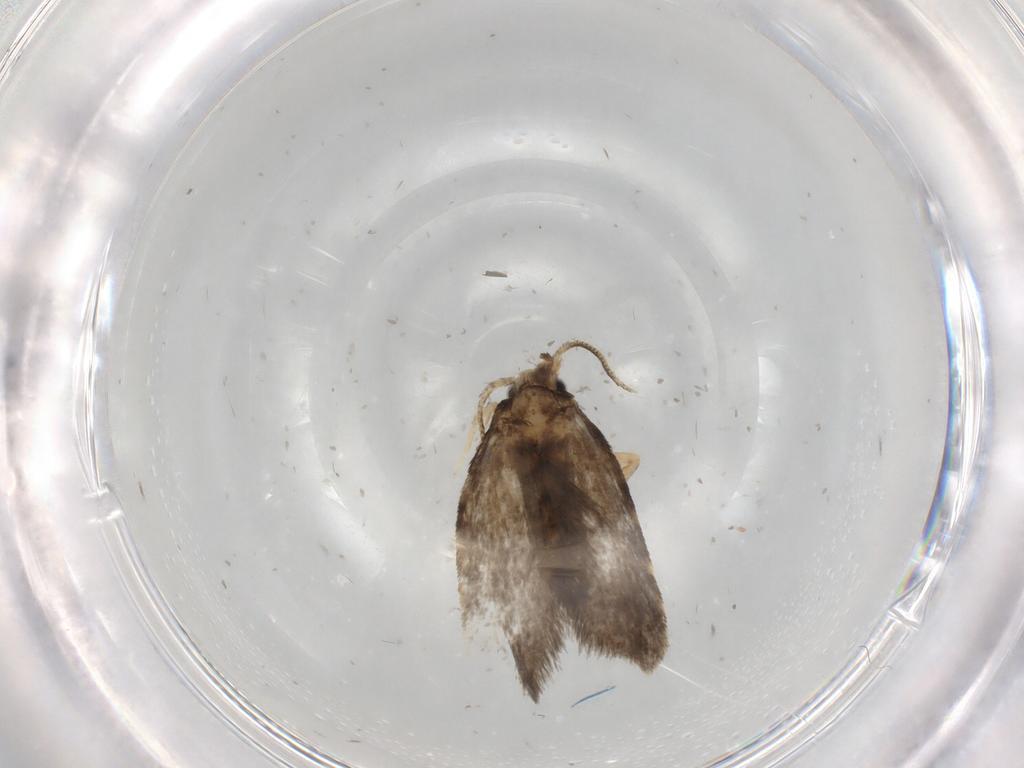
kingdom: Animalia
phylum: Arthropoda
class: Insecta
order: Lepidoptera
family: Psychidae
